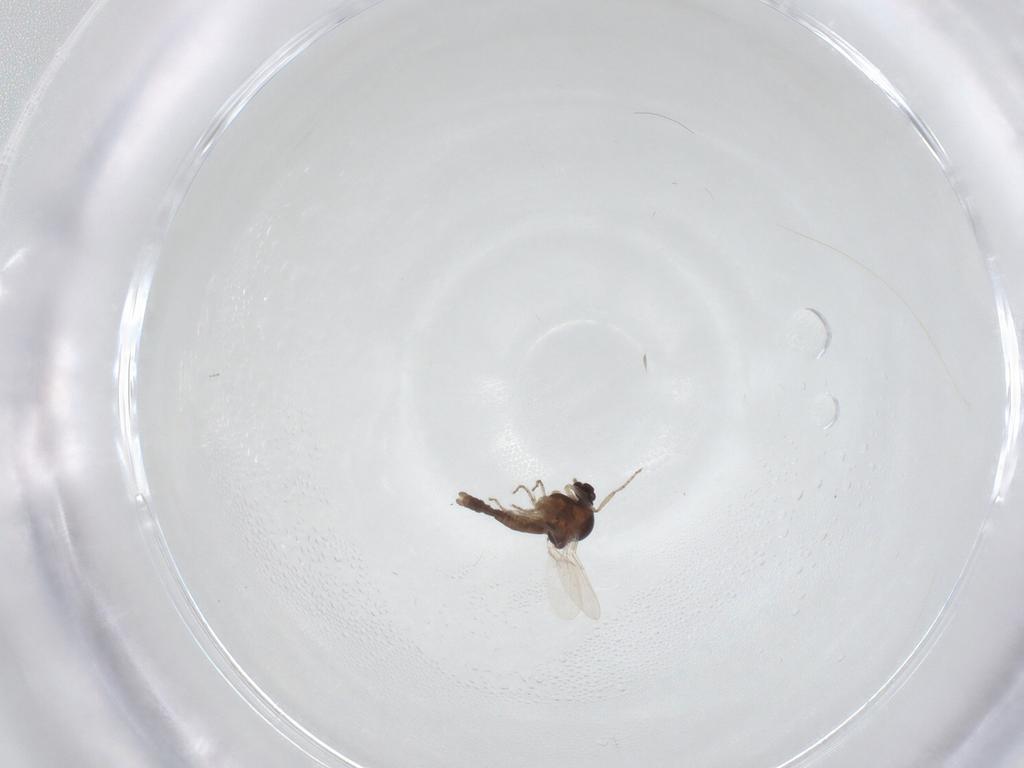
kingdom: Animalia
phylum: Arthropoda
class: Insecta
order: Diptera
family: Ceratopogonidae
